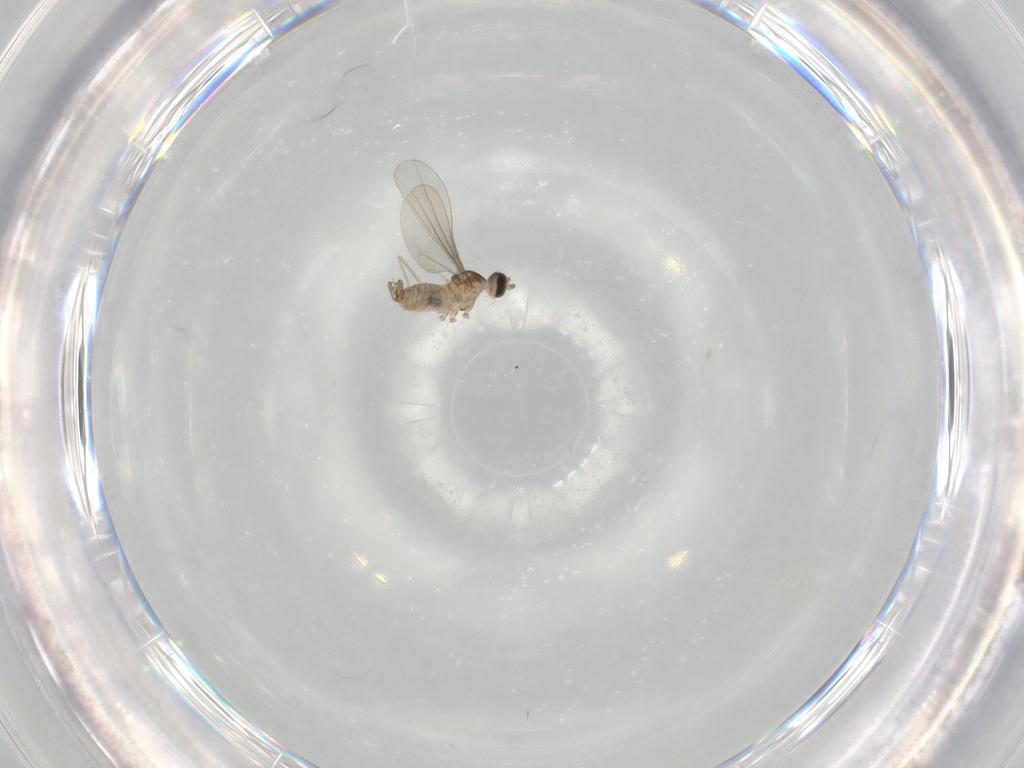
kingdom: Animalia
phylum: Arthropoda
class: Insecta
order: Diptera
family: Cecidomyiidae
